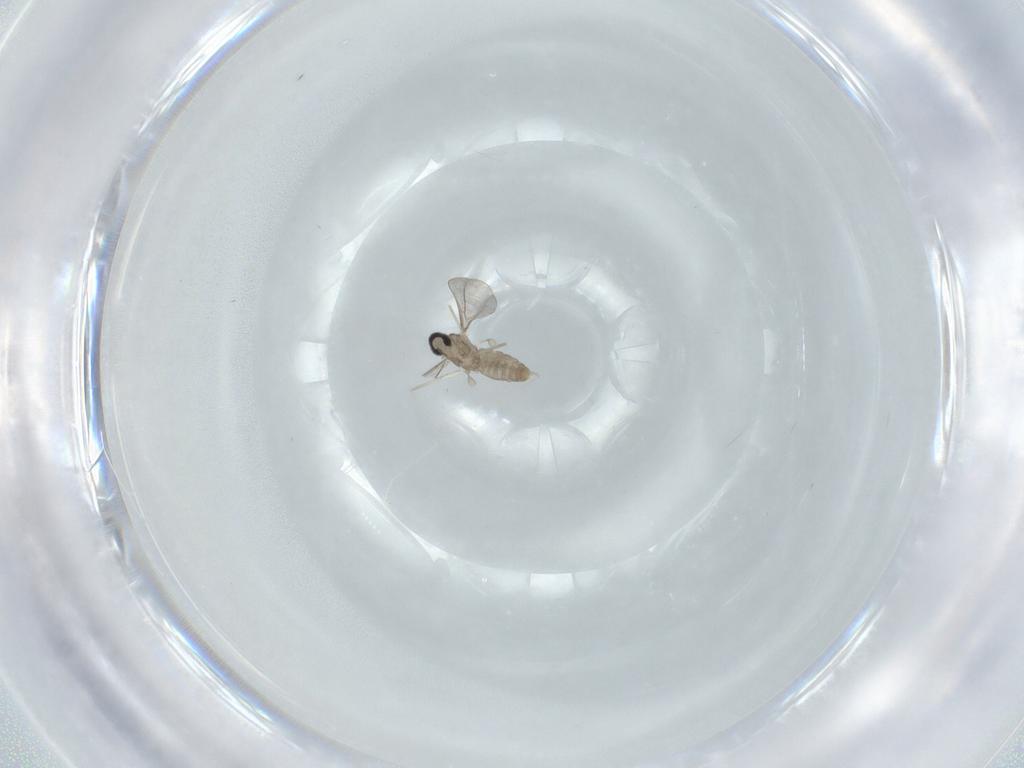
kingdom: Animalia
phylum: Arthropoda
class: Insecta
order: Diptera
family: Cecidomyiidae
